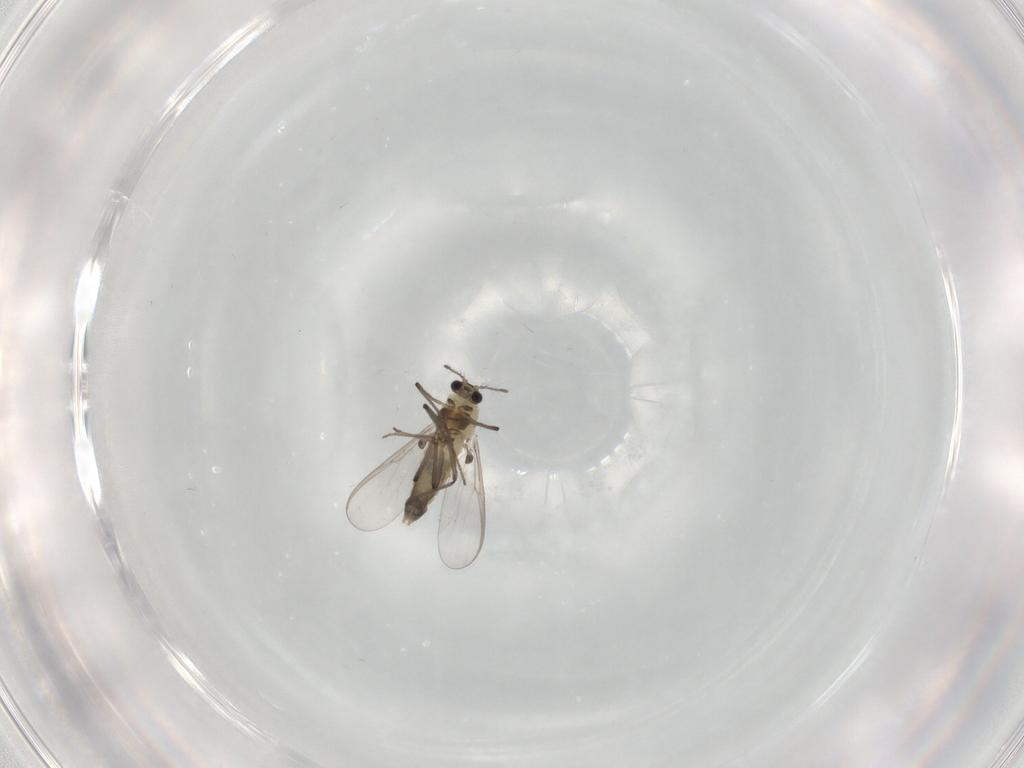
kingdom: Animalia
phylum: Arthropoda
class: Insecta
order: Diptera
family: Chironomidae
